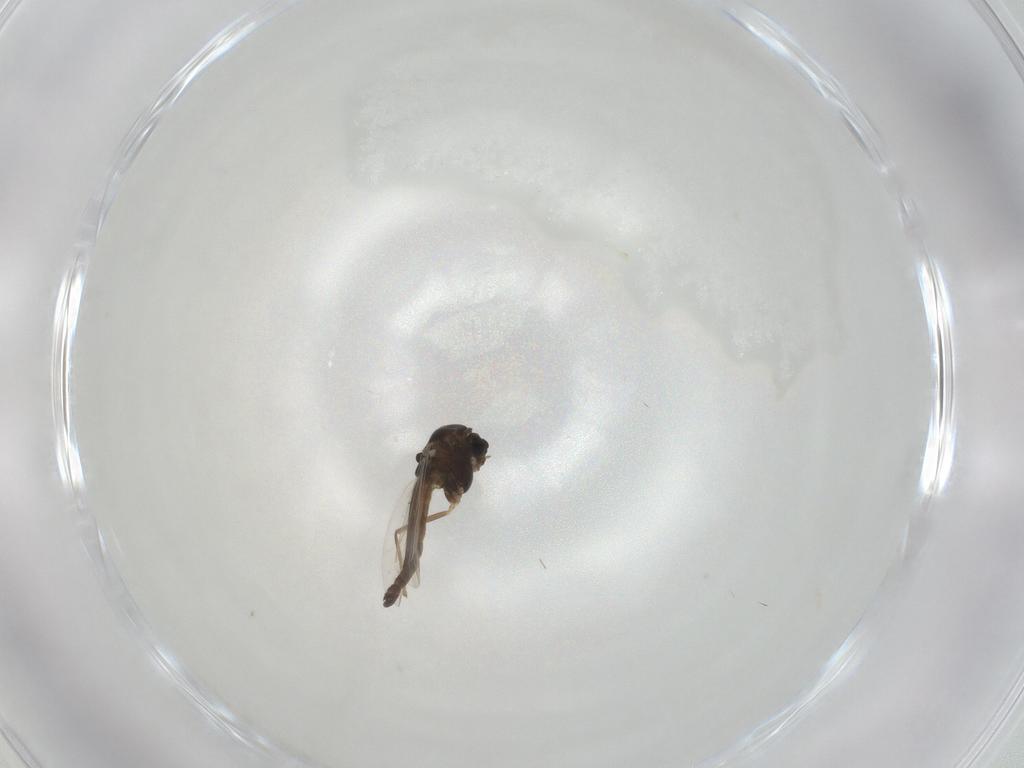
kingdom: Animalia
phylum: Arthropoda
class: Insecta
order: Diptera
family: Chironomidae
